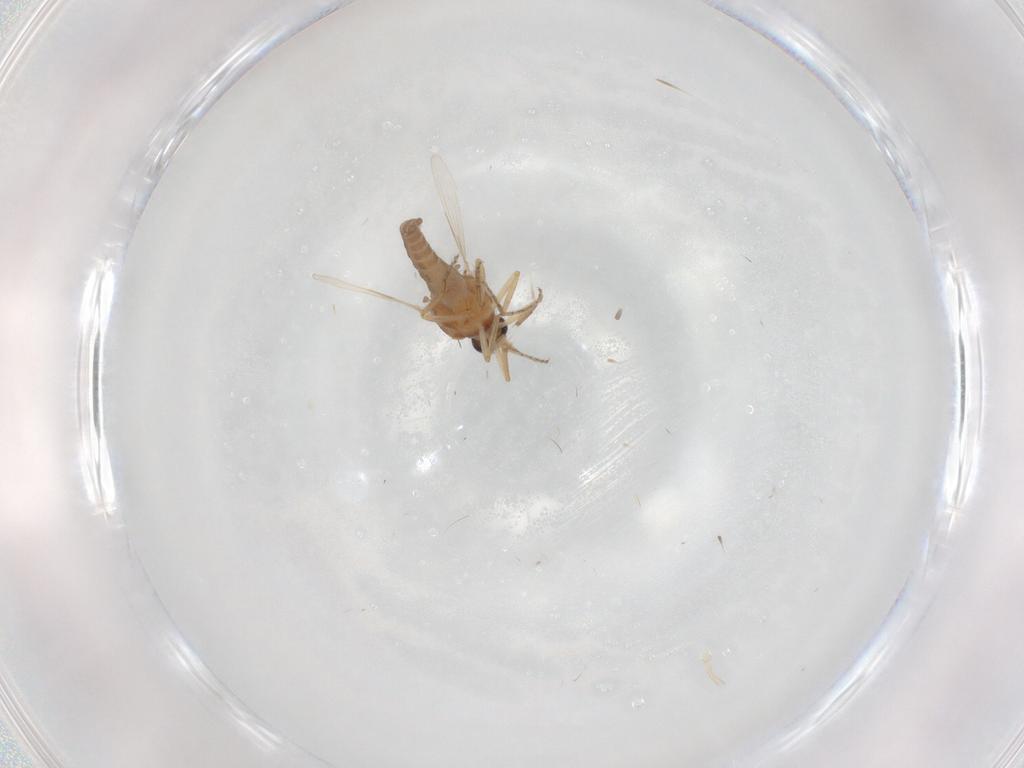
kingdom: Animalia
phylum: Arthropoda
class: Insecta
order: Diptera
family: Ceratopogonidae
